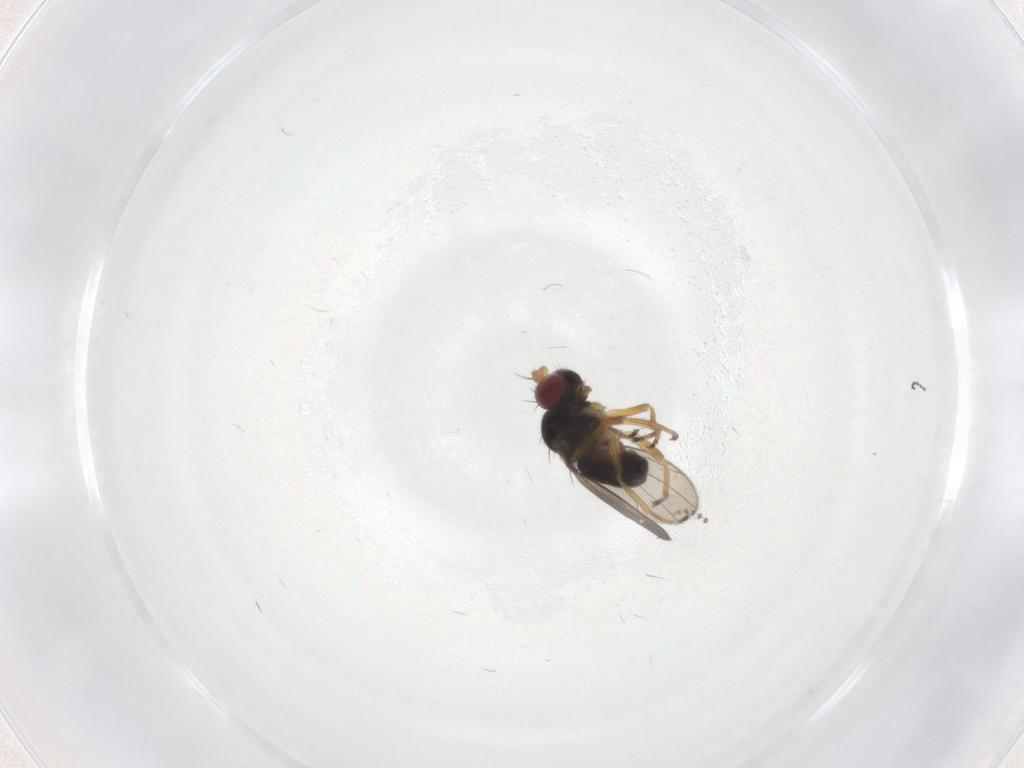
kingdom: Animalia
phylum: Arthropoda
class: Insecta
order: Diptera
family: Ephydridae
